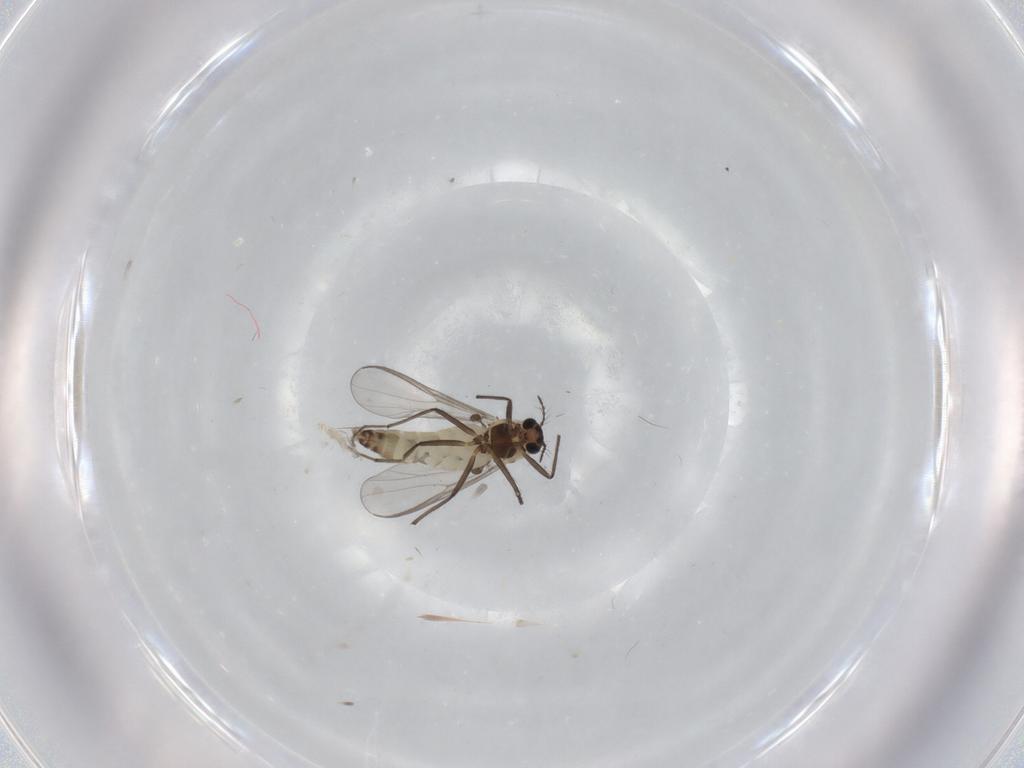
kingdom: Animalia
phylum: Arthropoda
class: Insecta
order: Diptera
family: Chironomidae
